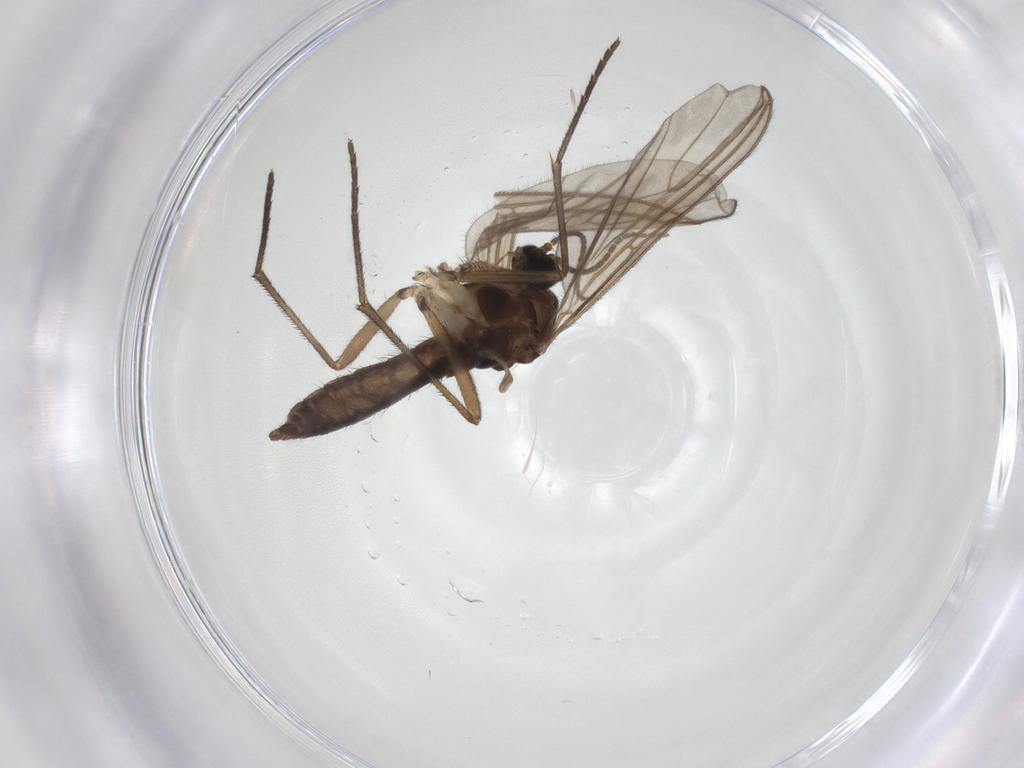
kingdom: Animalia
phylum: Arthropoda
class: Insecta
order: Diptera
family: Sciaridae
